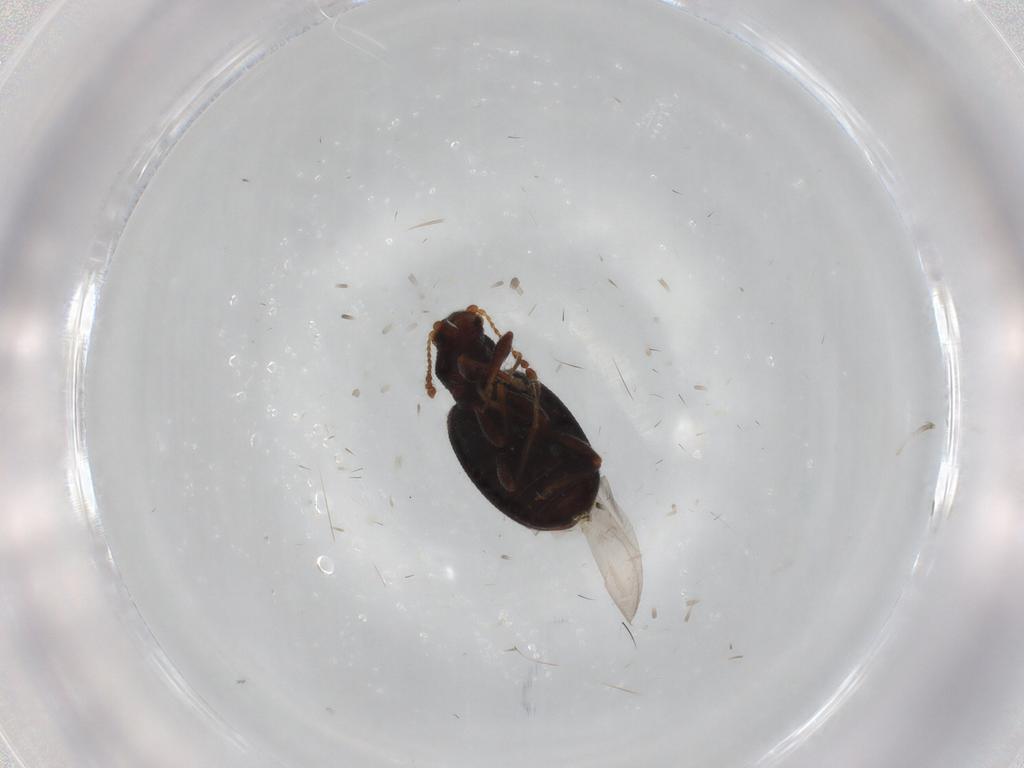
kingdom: Animalia
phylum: Arthropoda
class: Insecta
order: Coleoptera
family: Latridiidae
